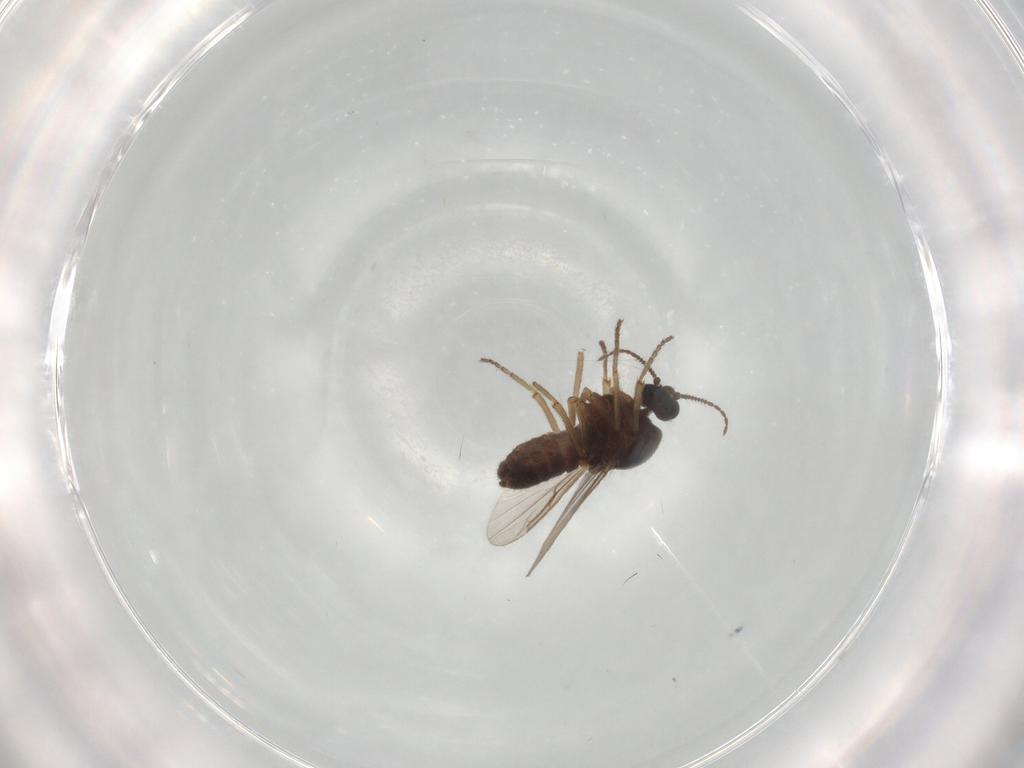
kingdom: Animalia
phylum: Arthropoda
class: Insecta
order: Diptera
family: Ceratopogonidae
